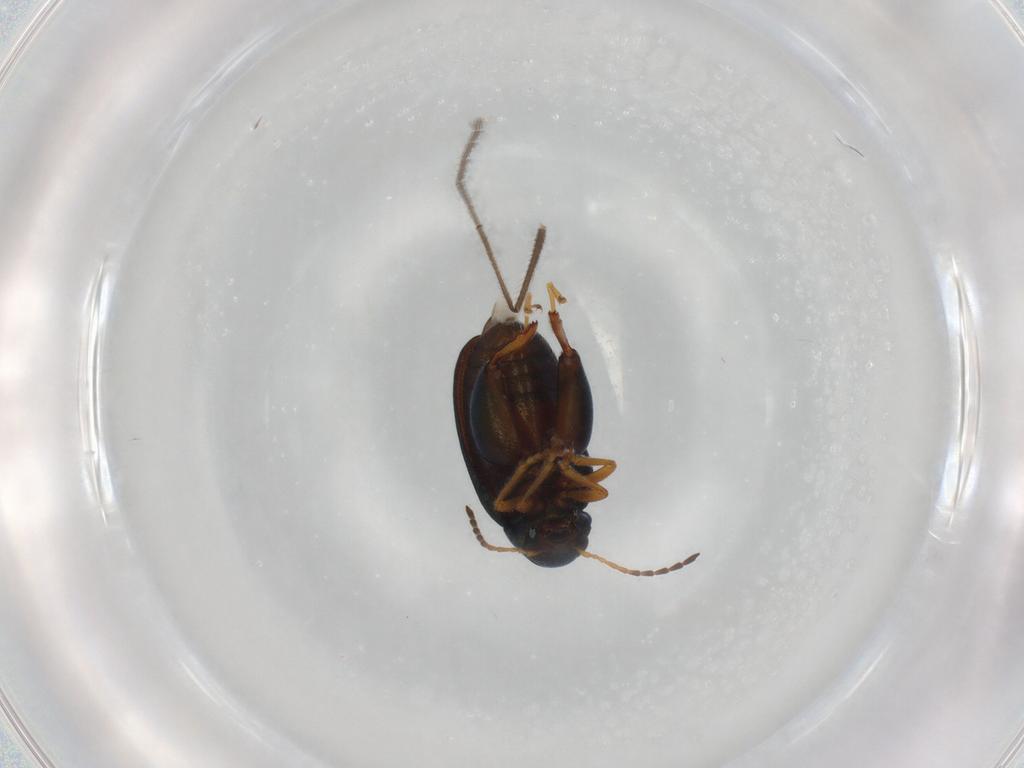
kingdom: Animalia
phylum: Arthropoda
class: Insecta
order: Coleoptera
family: Chrysomelidae
